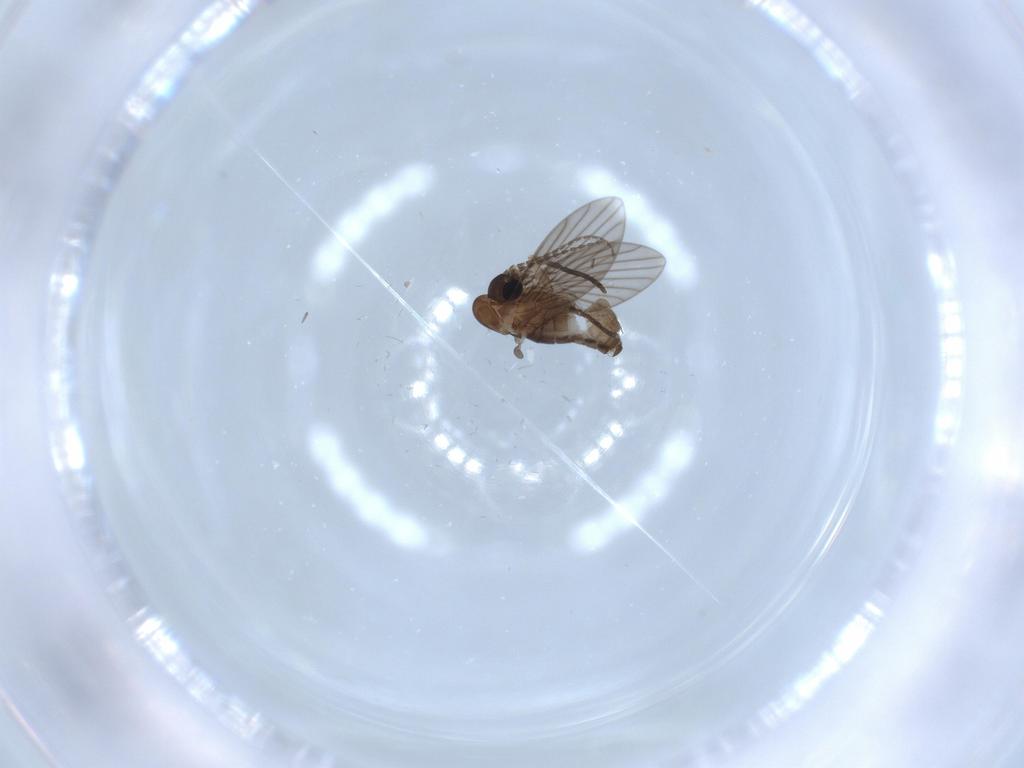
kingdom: Animalia
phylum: Arthropoda
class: Insecta
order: Diptera
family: Psychodidae
